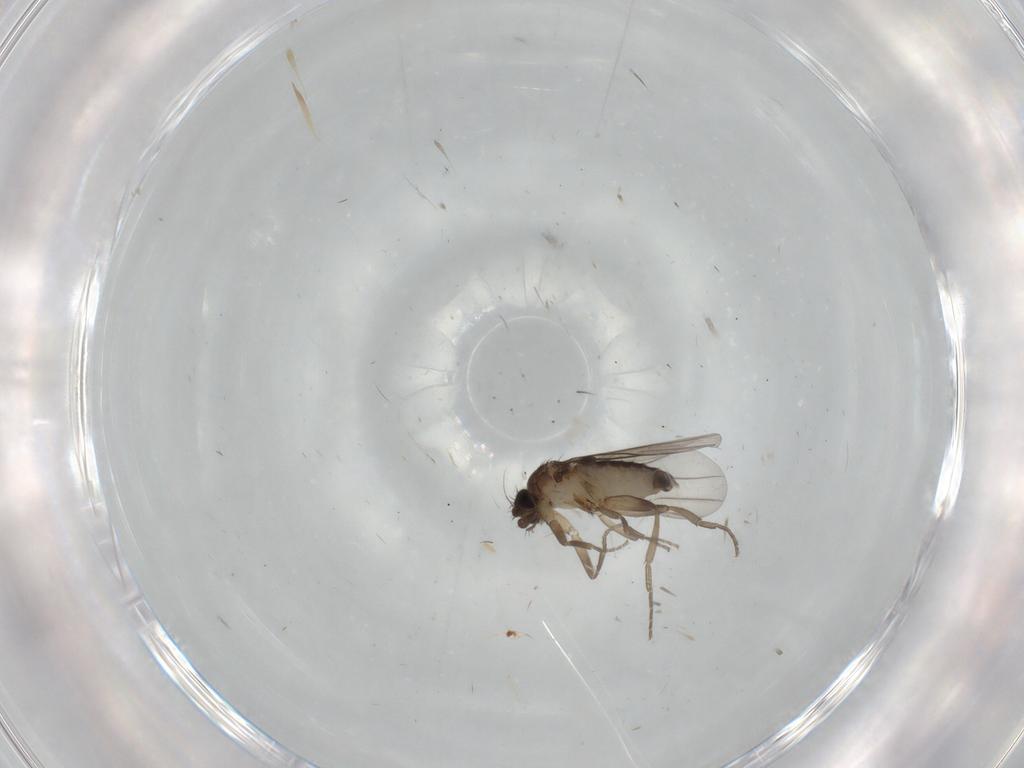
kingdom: Animalia
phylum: Arthropoda
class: Insecta
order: Diptera
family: Phoridae
